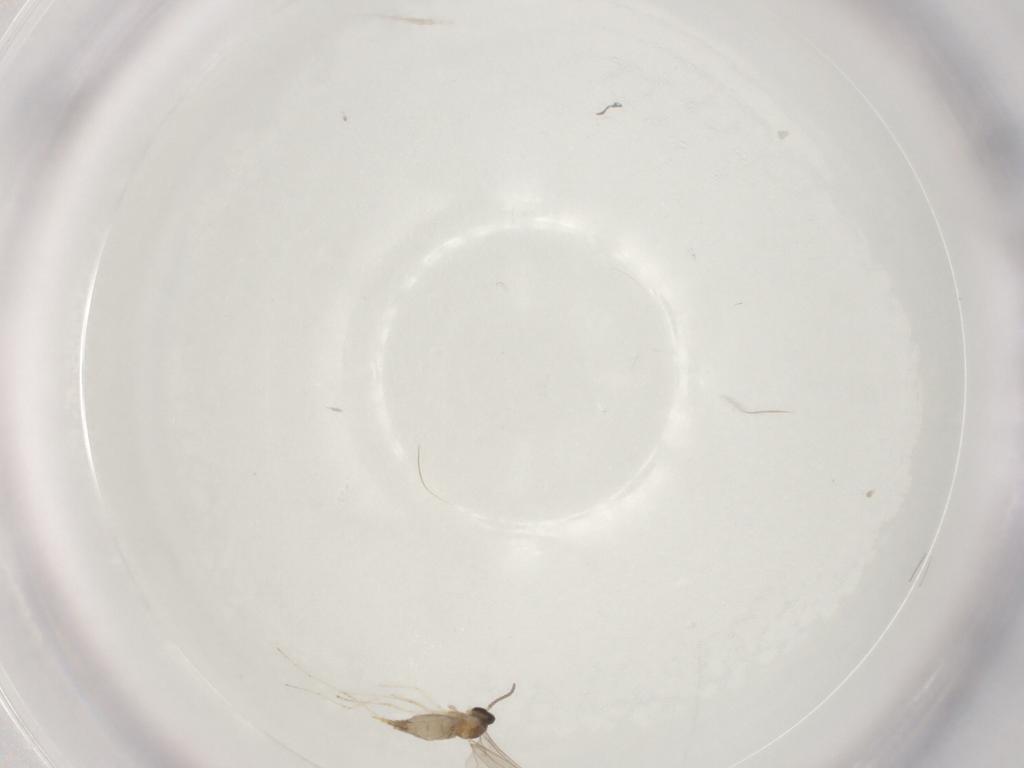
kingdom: Animalia
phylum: Arthropoda
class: Insecta
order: Diptera
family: Cecidomyiidae
